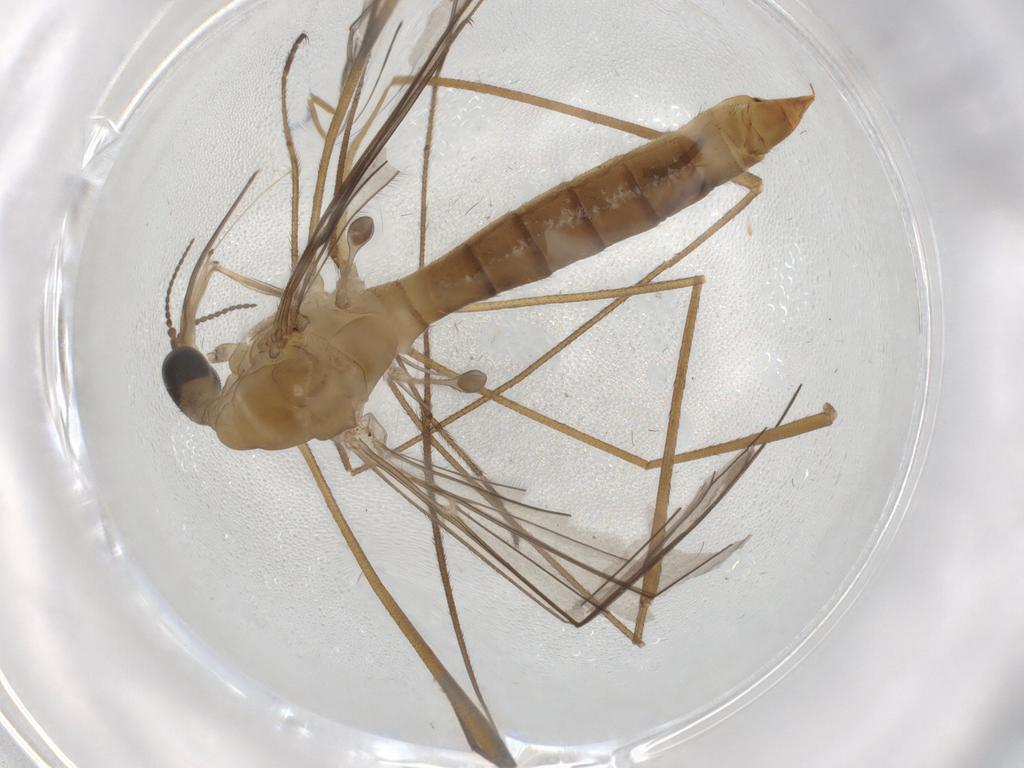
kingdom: Animalia
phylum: Arthropoda
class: Insecta
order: Diptera
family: Limoniidae
